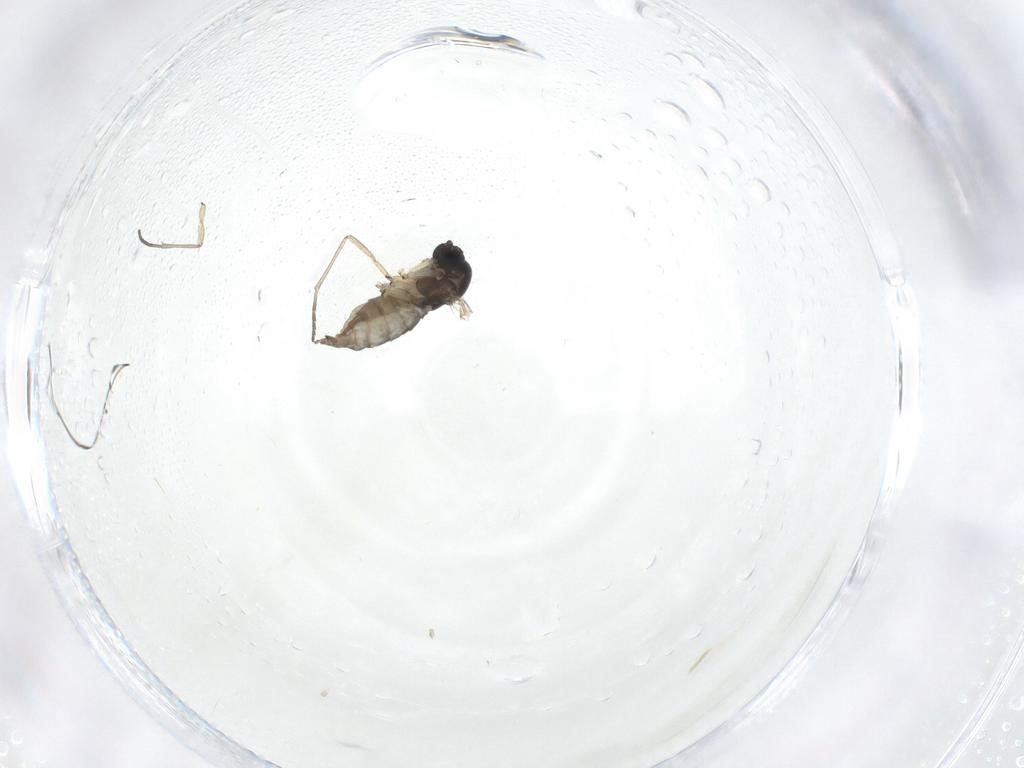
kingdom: Animalia
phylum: Arthropoda
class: Insecta
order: Diptera
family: Sciaridae
